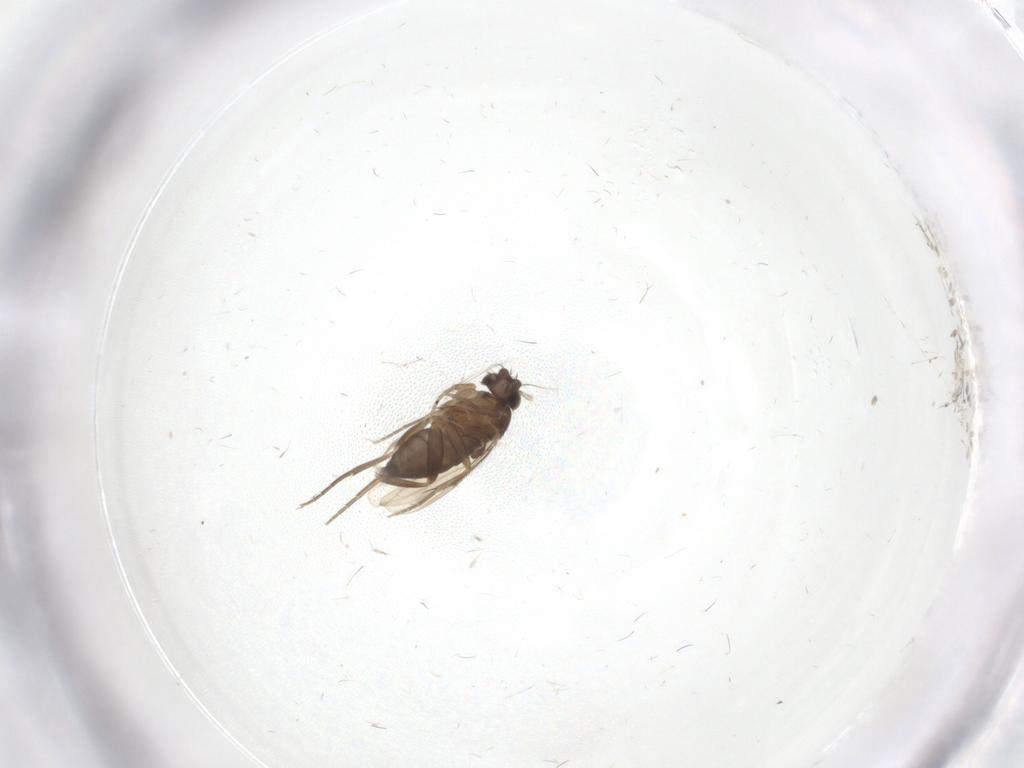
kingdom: Animalia
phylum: Arthropoda
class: Insecta
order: Diptera
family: Phoridae
